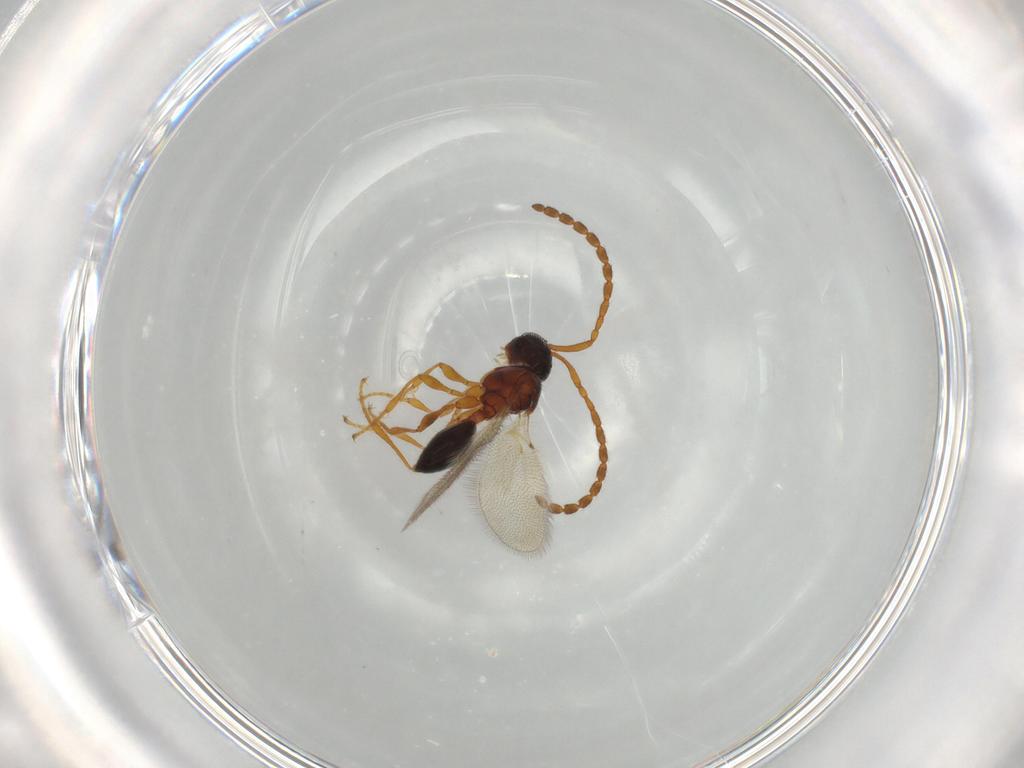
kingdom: Animalia
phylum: Arthropoda
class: Insecta
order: Hymenoptera
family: Diapriidae
